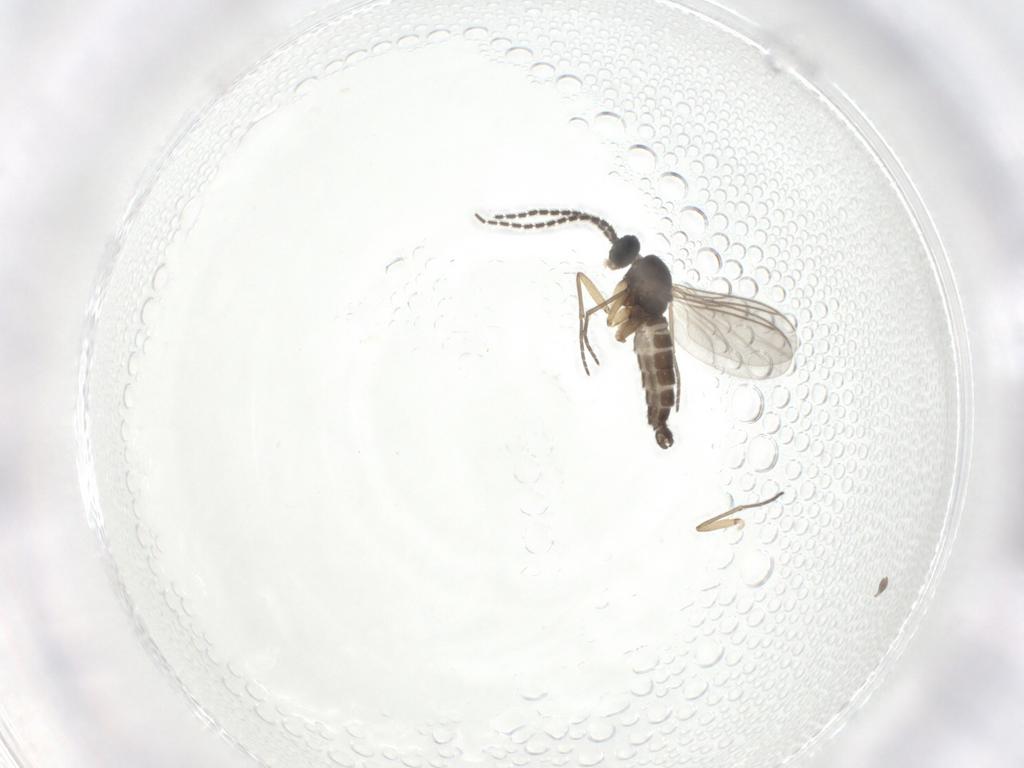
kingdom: Animalia
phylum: Arthropoda
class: Insecta
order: Diptera
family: Sciaridae
